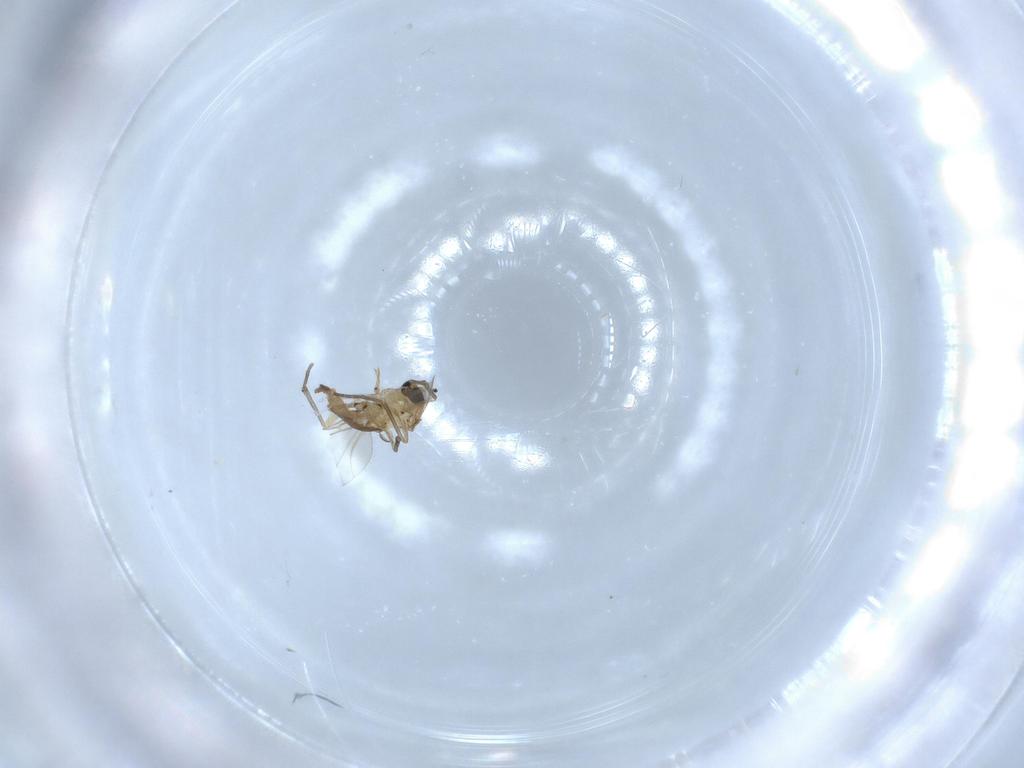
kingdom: Animalia
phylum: Arthropoda
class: Insecta
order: Diptera
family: Sciaridae
